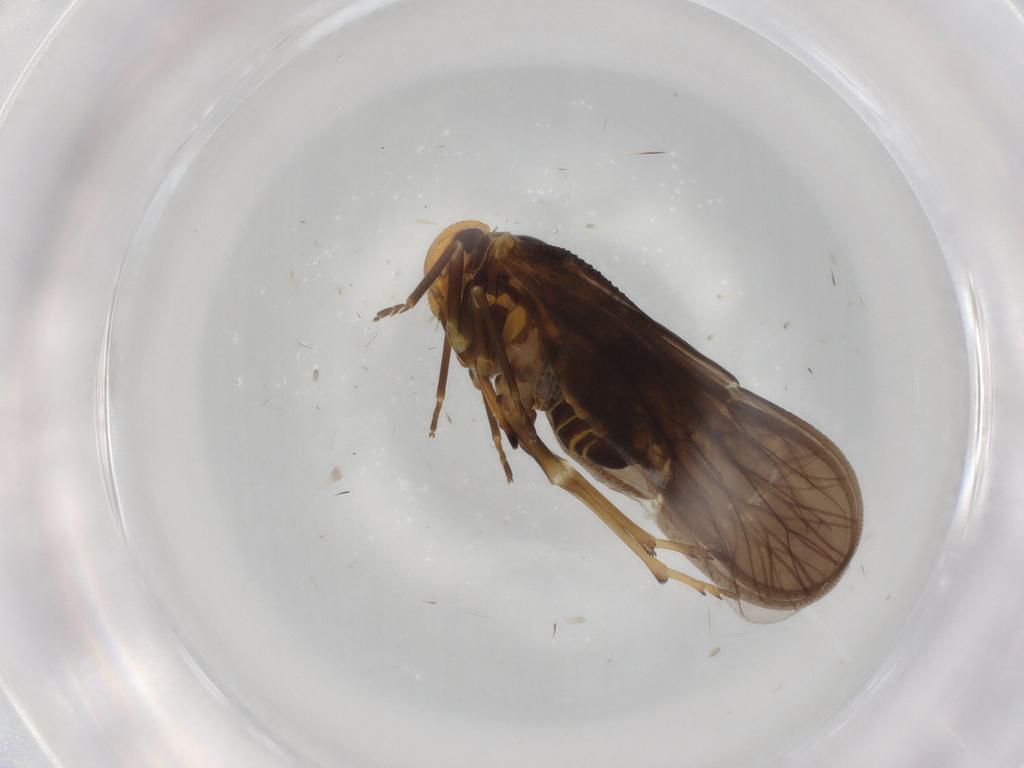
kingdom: Animalia
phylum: Arthropoda
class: Insecta
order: Hemiptera
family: Meenoplidae
